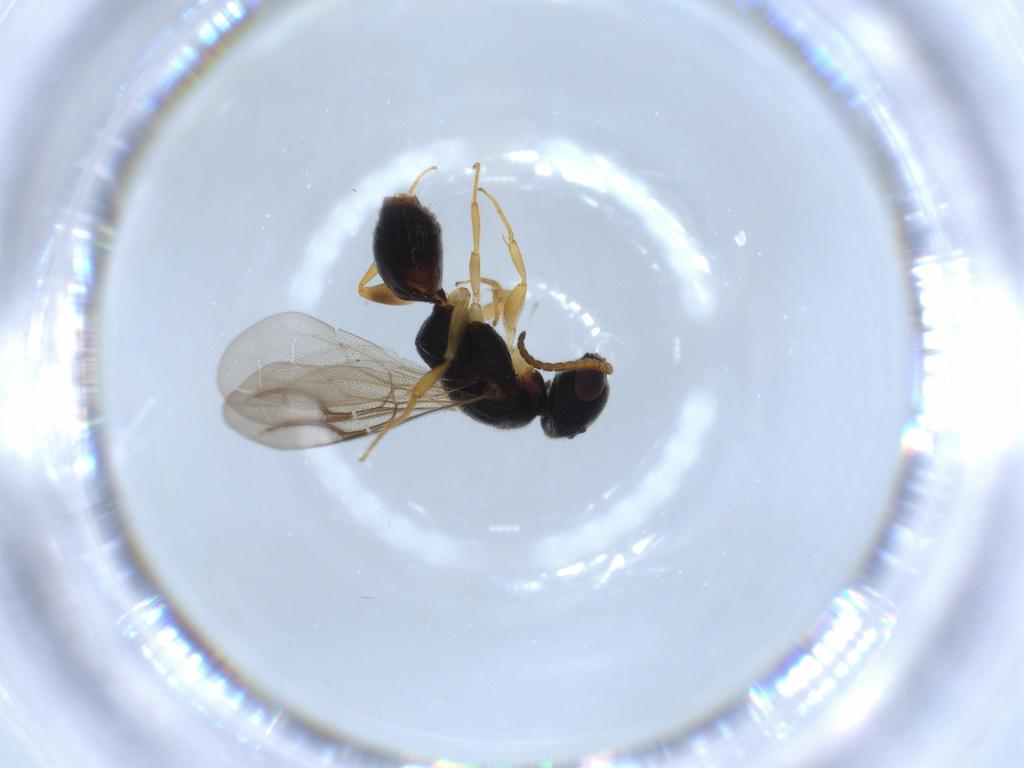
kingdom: Animalia
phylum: Arthropoda
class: Insecta
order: Hymenoptera
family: Bethylidae
